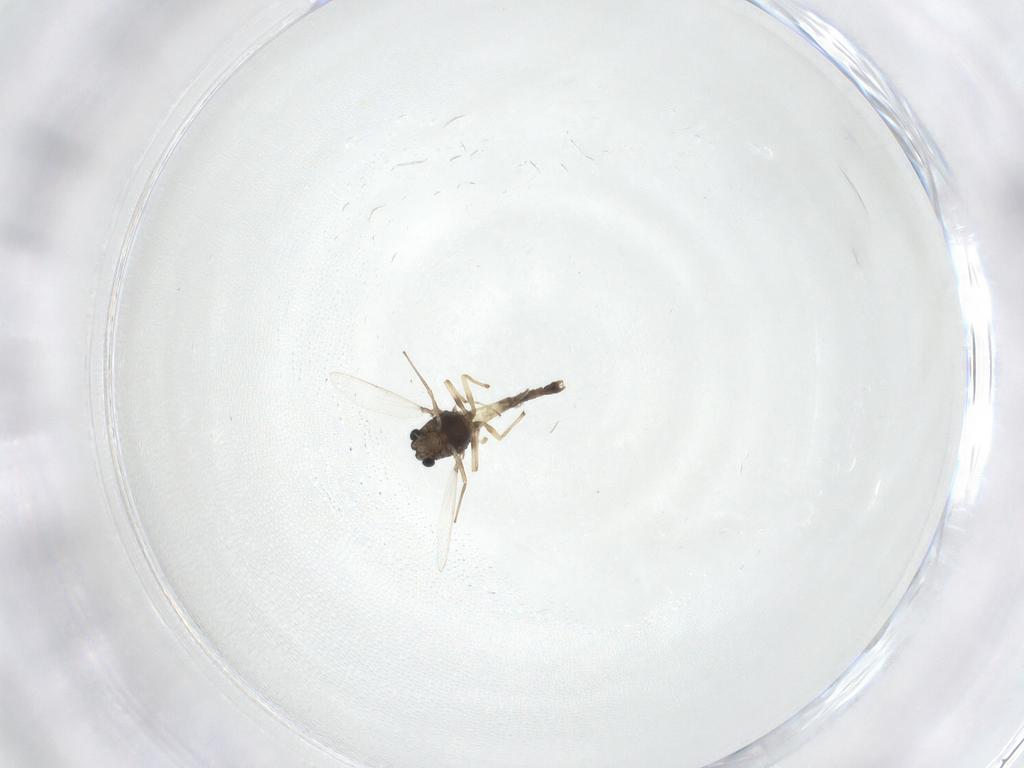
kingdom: Animalia
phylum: Arthropoda
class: Insecta
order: Diptera
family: Chironomidae
